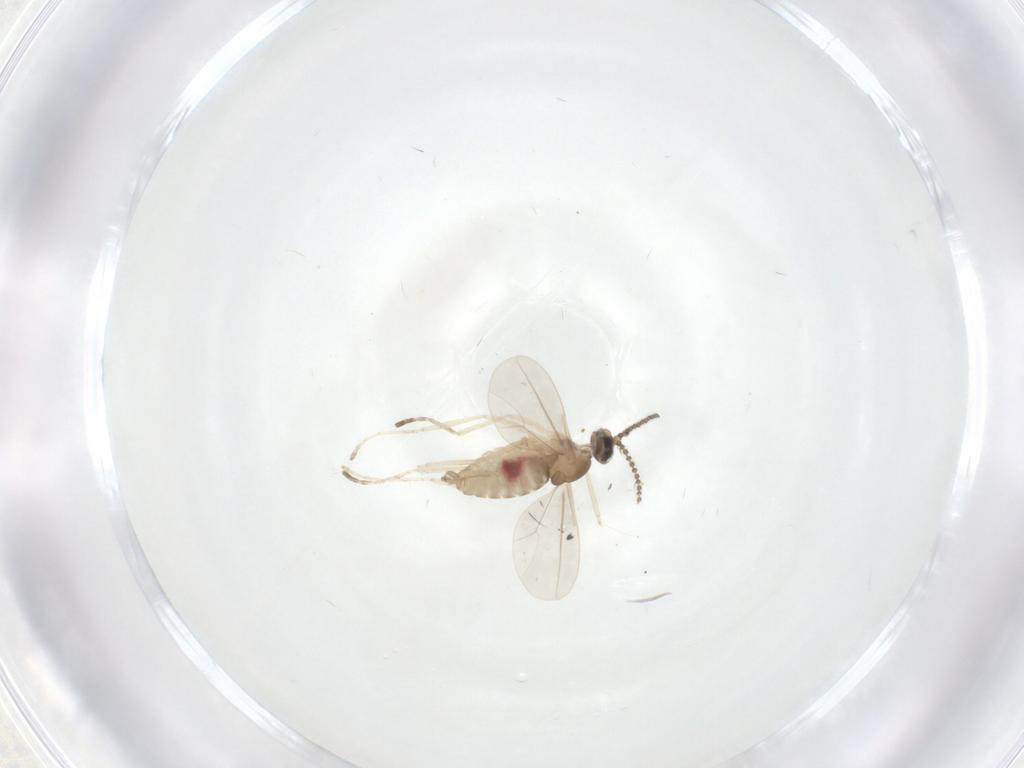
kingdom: Animalia
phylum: Arthropoda
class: Insecta
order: Diptera
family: Cecidomyiidae
